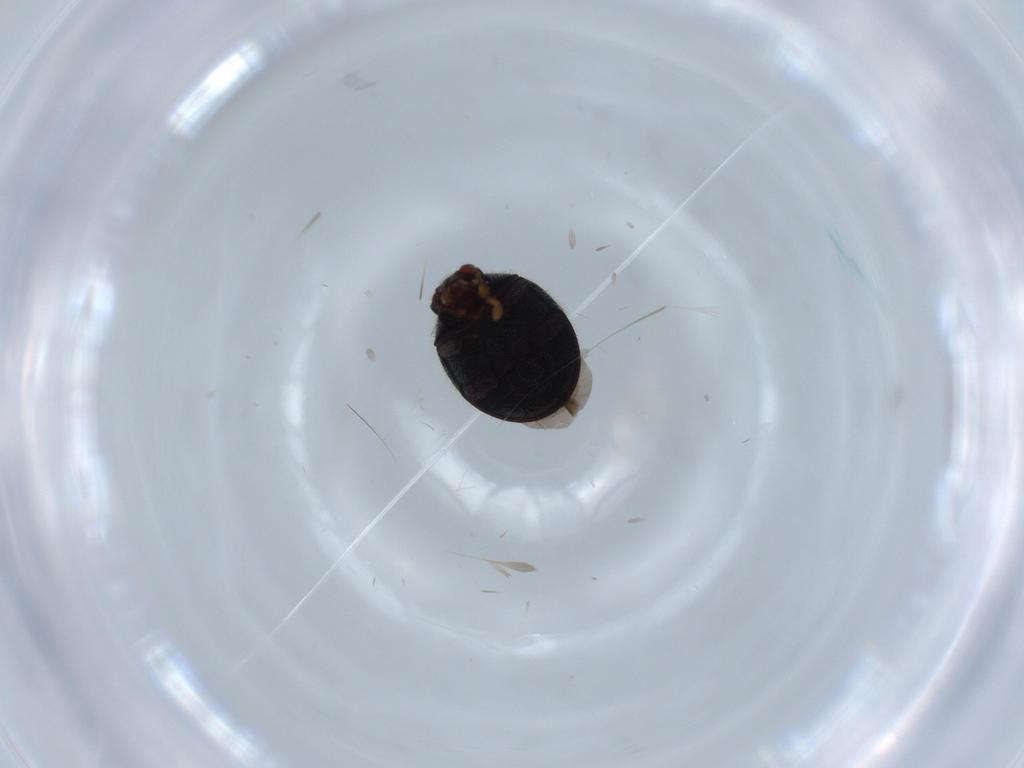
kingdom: Animalia
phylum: Arthropoda
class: Insecta
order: Coleoptera
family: Ptinidae
